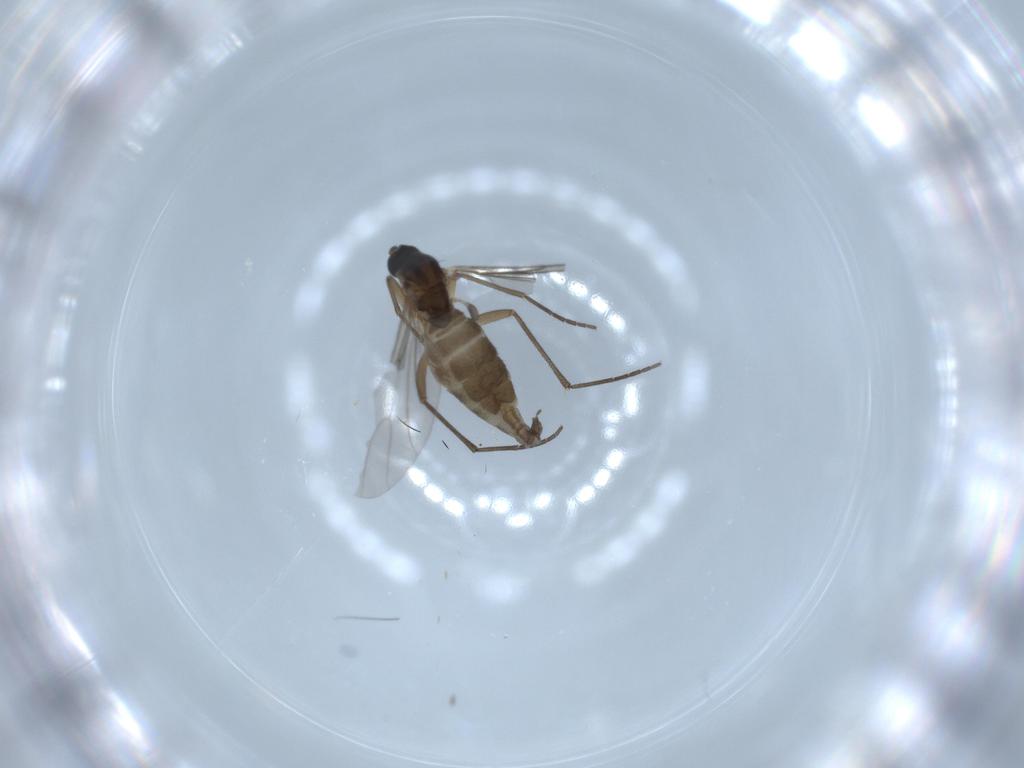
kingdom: Animalia
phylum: Arthropoda
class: Insecta
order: Diptera
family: Sciaridae
